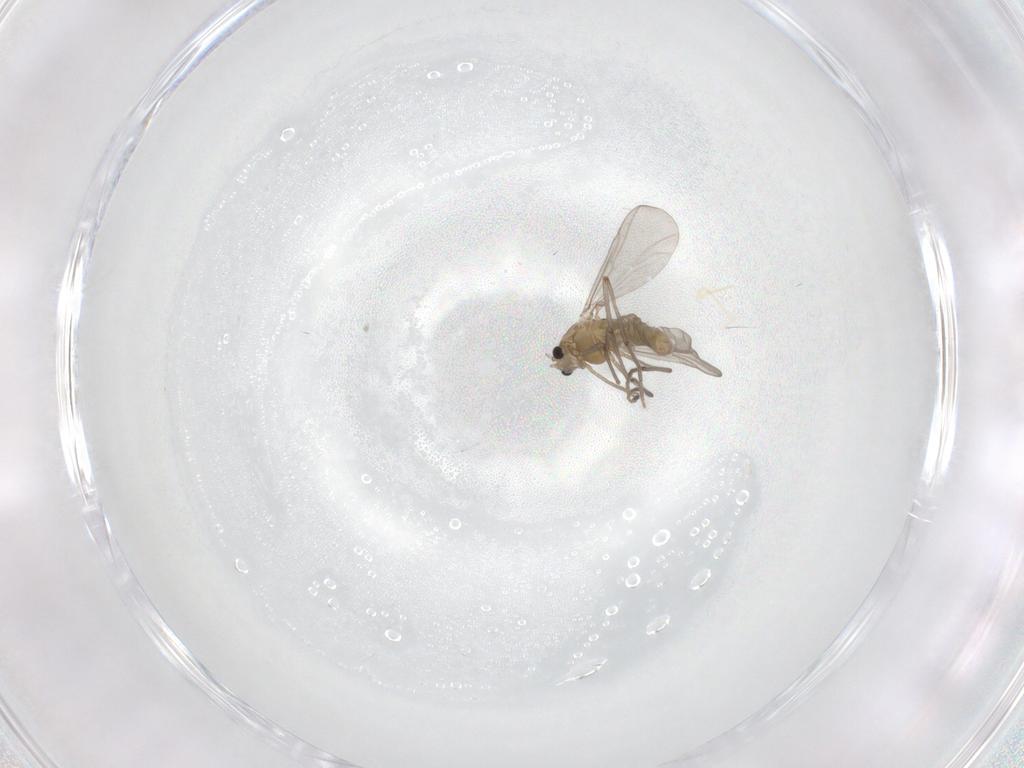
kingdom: Animalia
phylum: Arthropoda
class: Insecta
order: Diptera
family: Chironomidae
